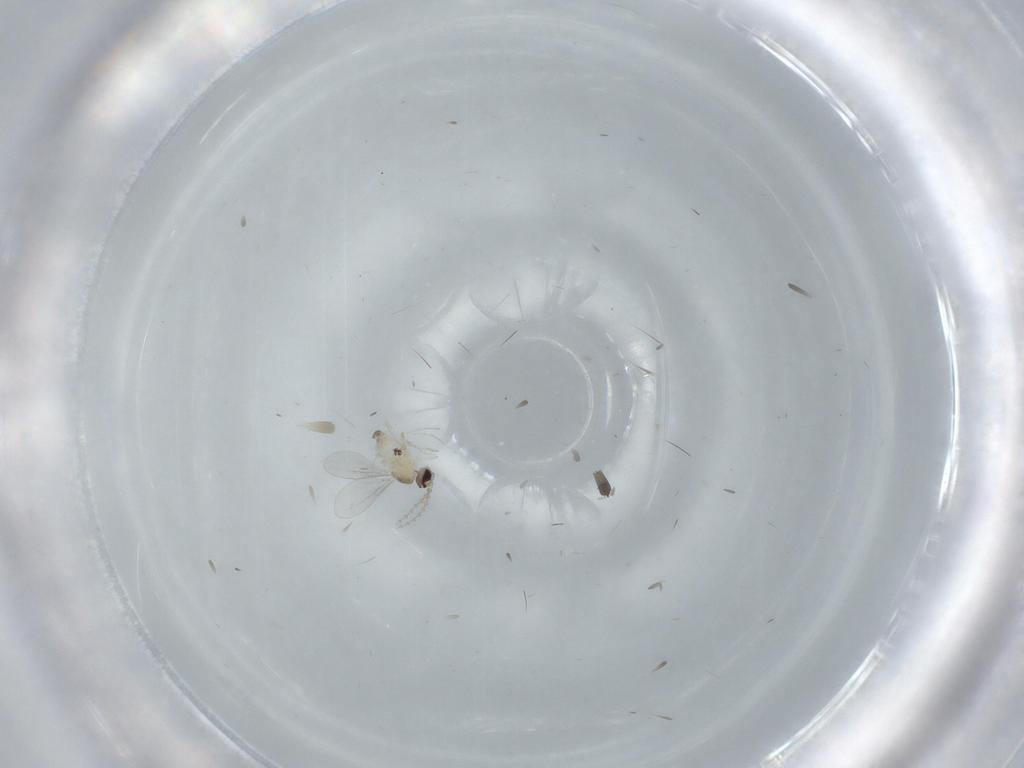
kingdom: Animalia
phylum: Arthropoda
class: Insecta
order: Diptera
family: Cecidomyiidae
